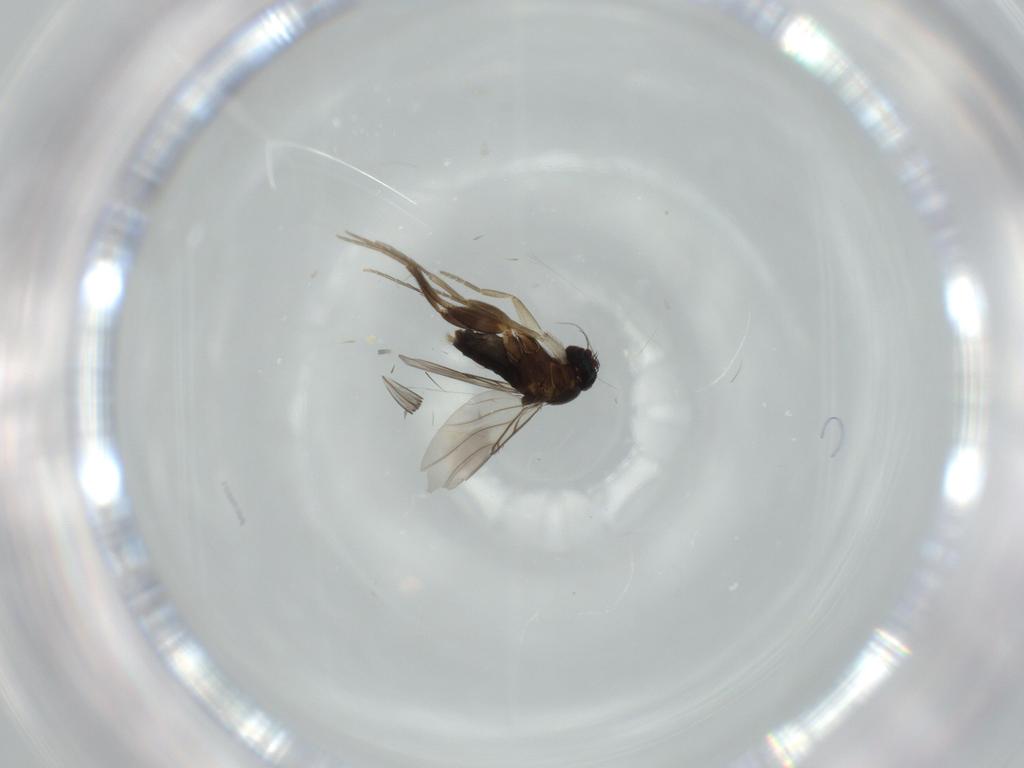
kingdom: Animalia
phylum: Arthropoda
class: Insecta
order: Diptera
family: Phoridae
